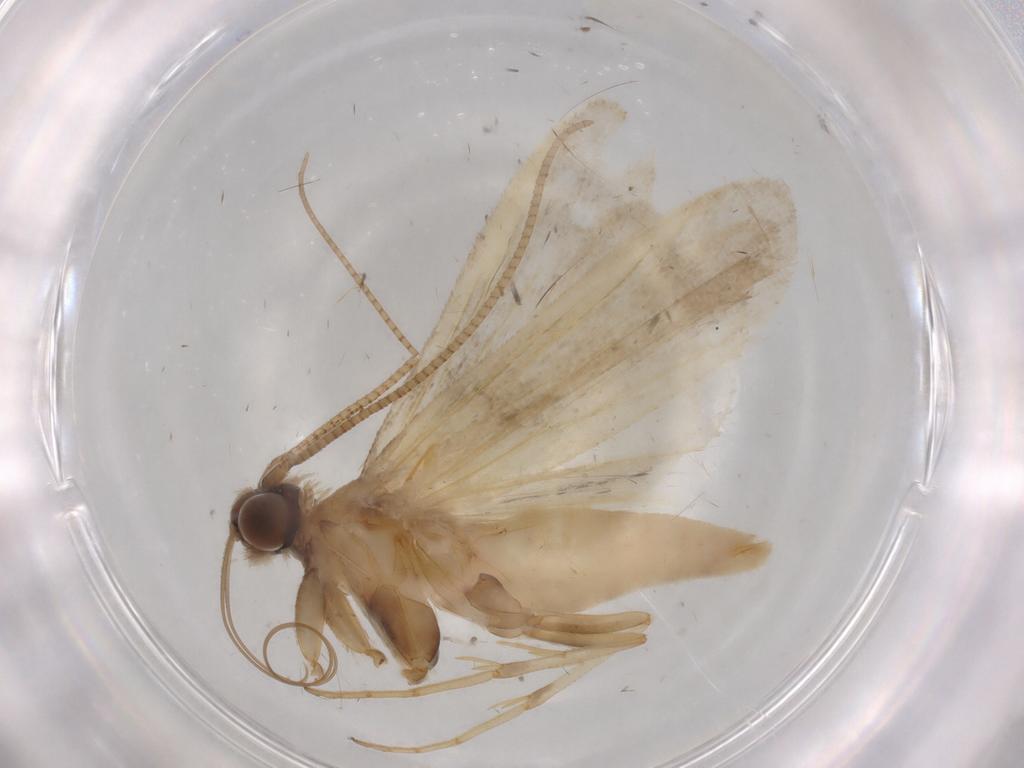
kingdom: Animalia
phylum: Arthropoda
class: Insecta
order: Lepidoptera
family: Noctuidae
